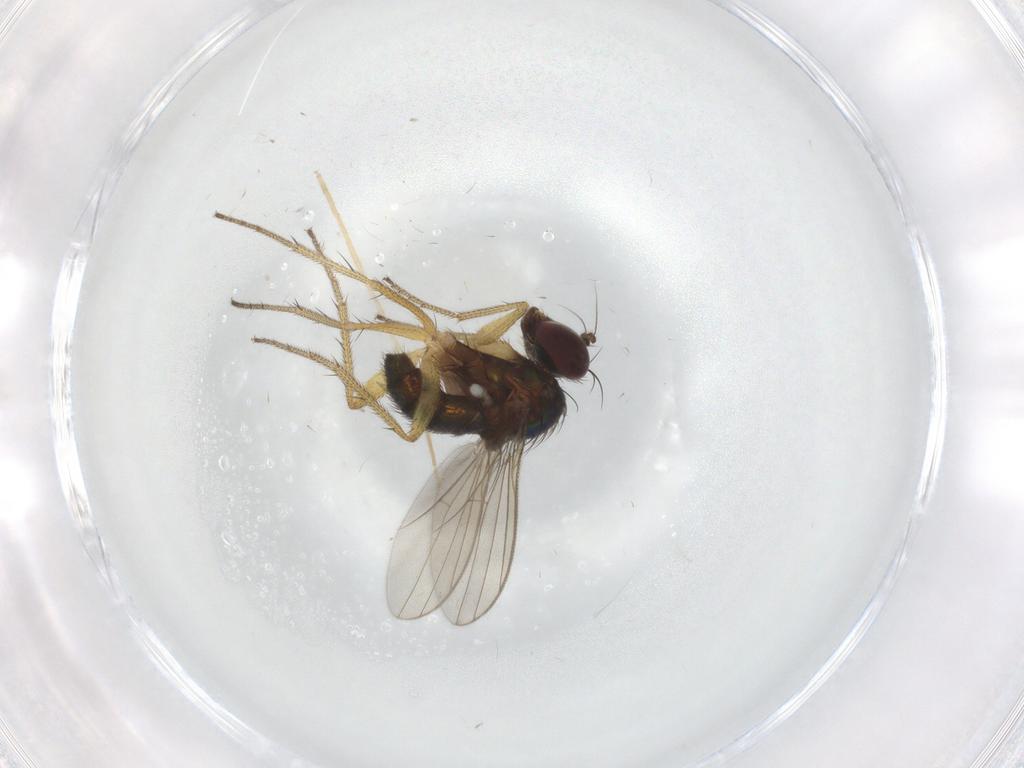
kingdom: Animalia
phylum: Arthropoda
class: Insecta
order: Diptera
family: Chironomidae
